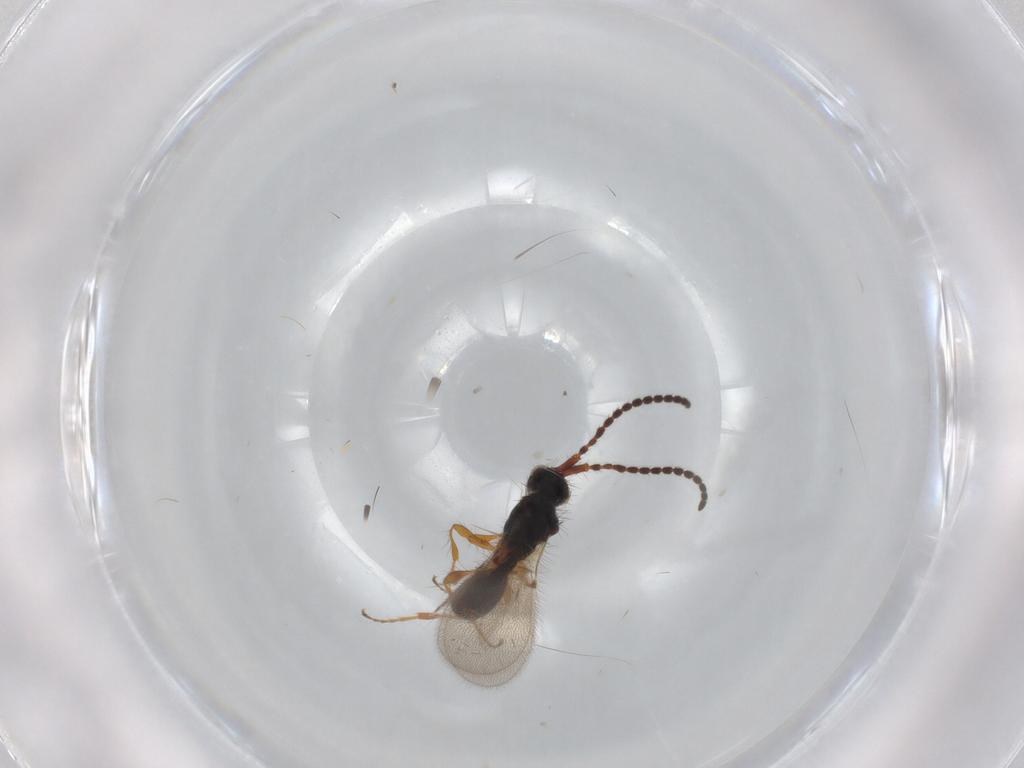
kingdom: Animalia
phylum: Arthropoda
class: Insecta
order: Hymenoptera
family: Diapriidae
